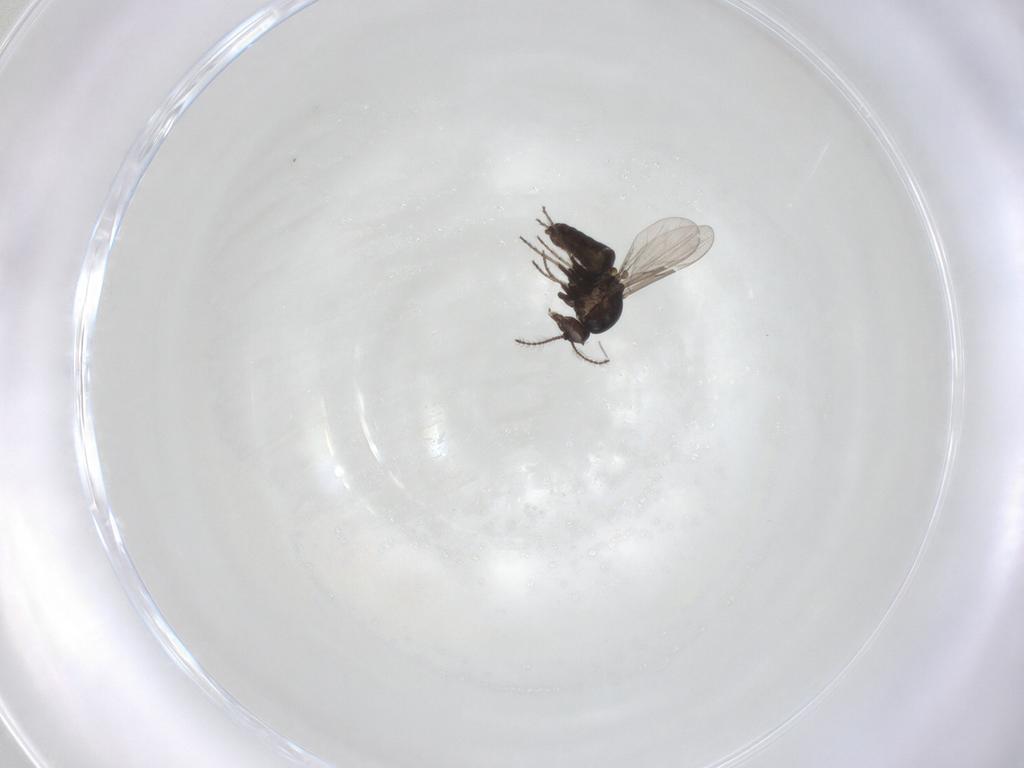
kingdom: Animalia
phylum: Arthropoda
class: Insecta
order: Diptera
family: Ceratopogonidae
